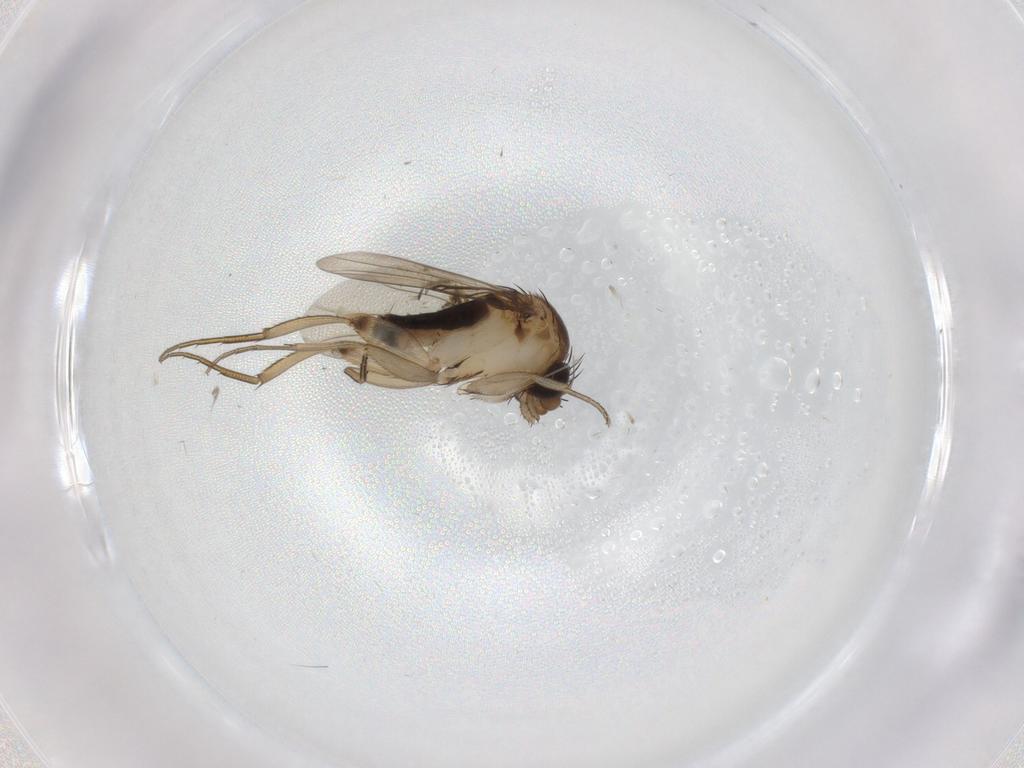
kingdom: Animalia
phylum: Arthropoda
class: Insecta
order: Diptera
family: Phoridae
